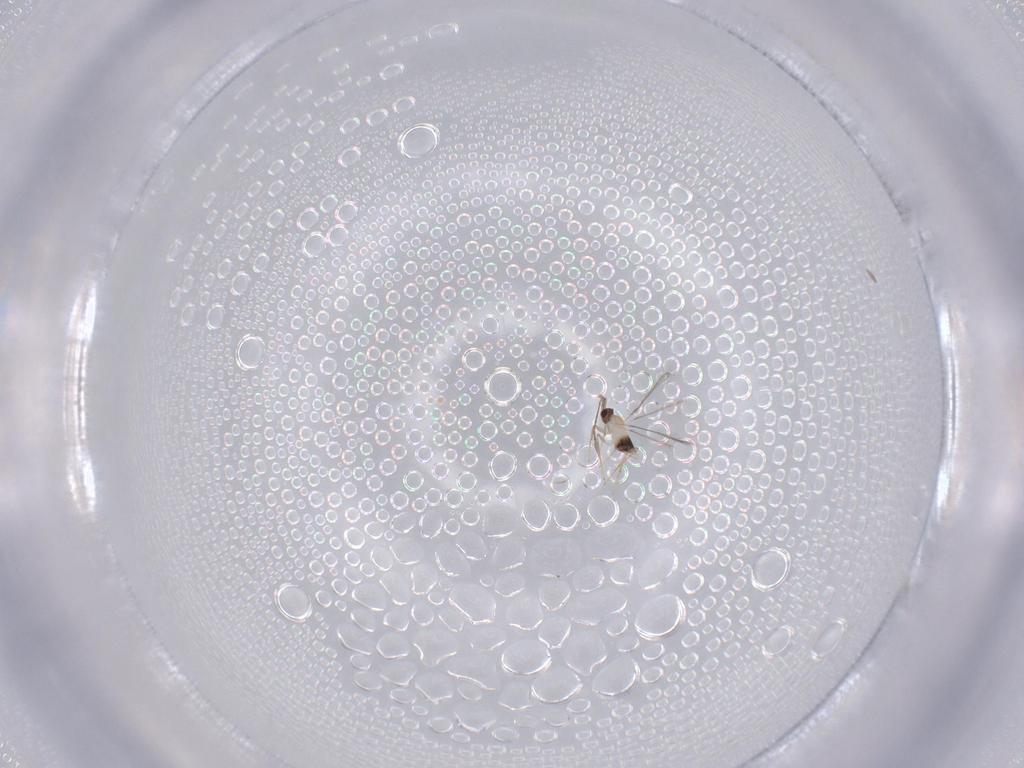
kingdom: Animalia
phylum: Arthropoda
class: Insecta
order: Hymenoptera
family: Mymaridae
